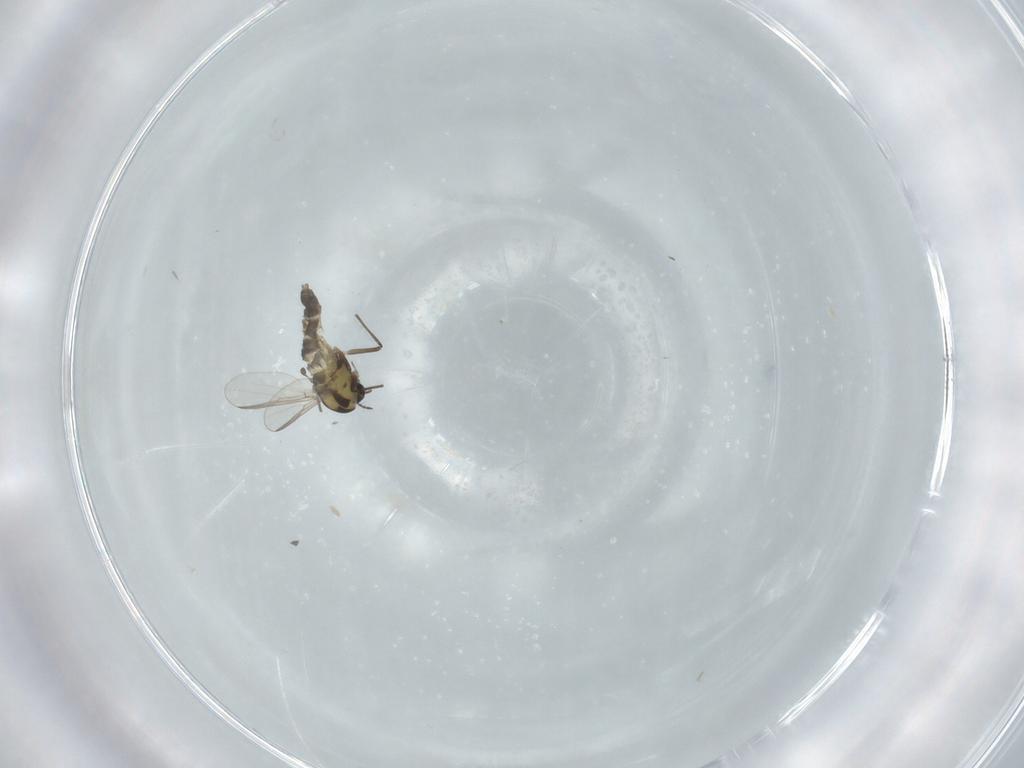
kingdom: Animalia
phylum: Arthropoda
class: Insecta
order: Diptera
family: Chironomidae
